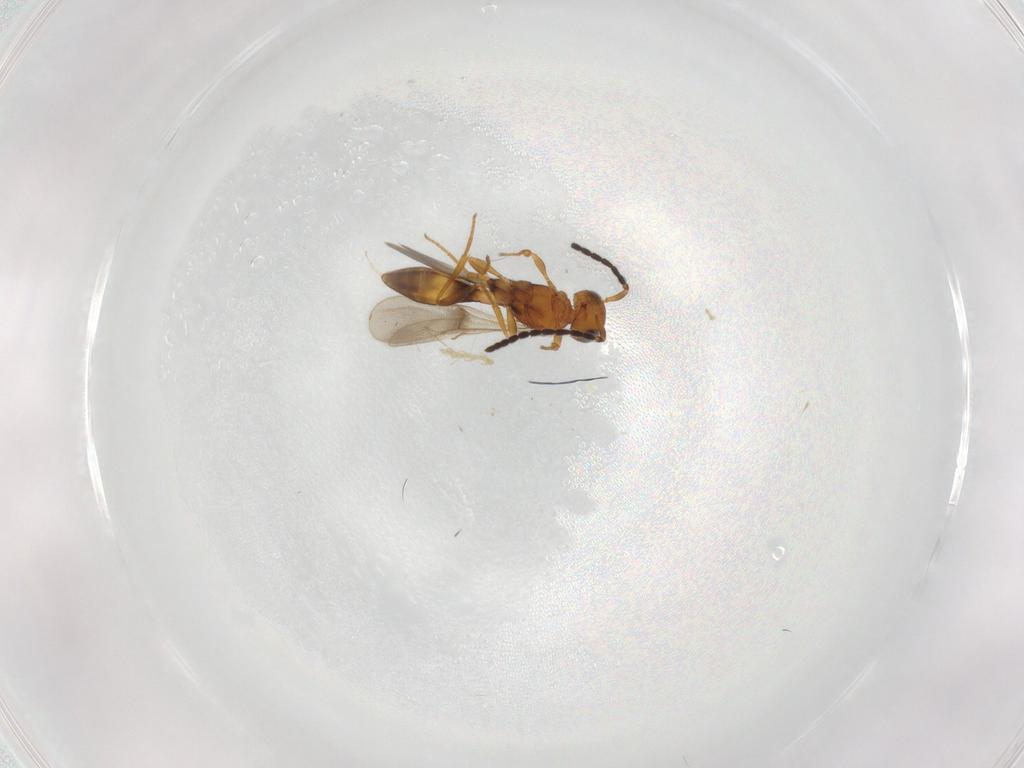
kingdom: Animalia
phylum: Arthropoda
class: Insecta
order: Hymenoptera
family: Scelionidae
